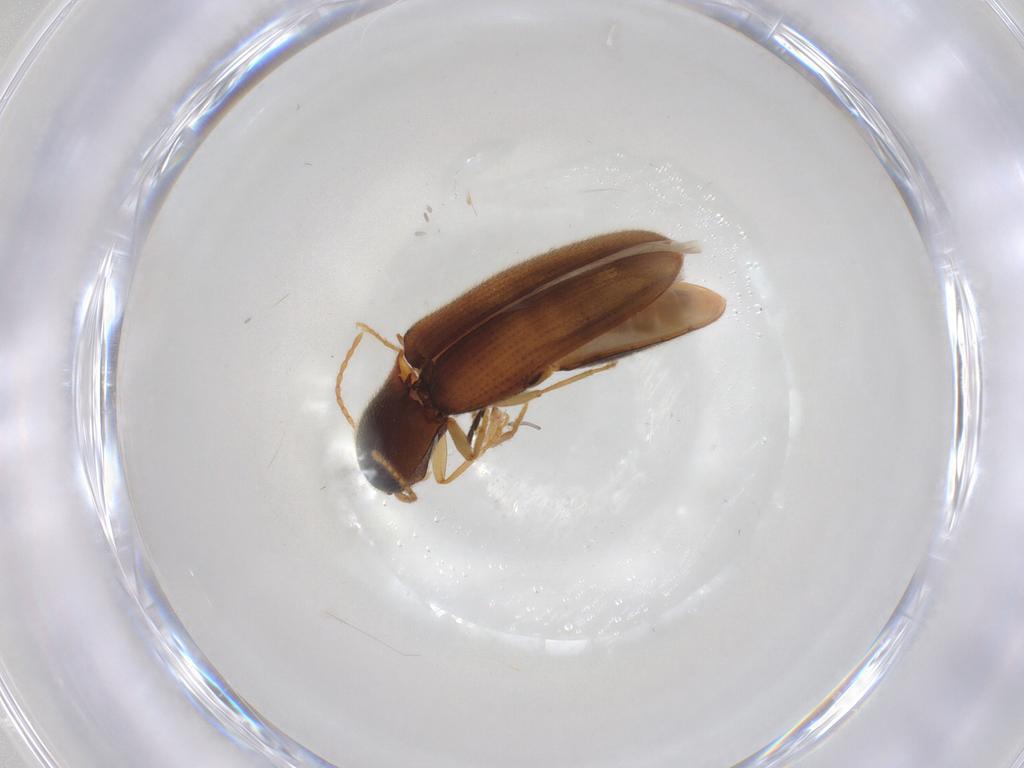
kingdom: Animalia
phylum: Arthropoda
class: Insecta
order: Coleoptera
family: Elateridae
